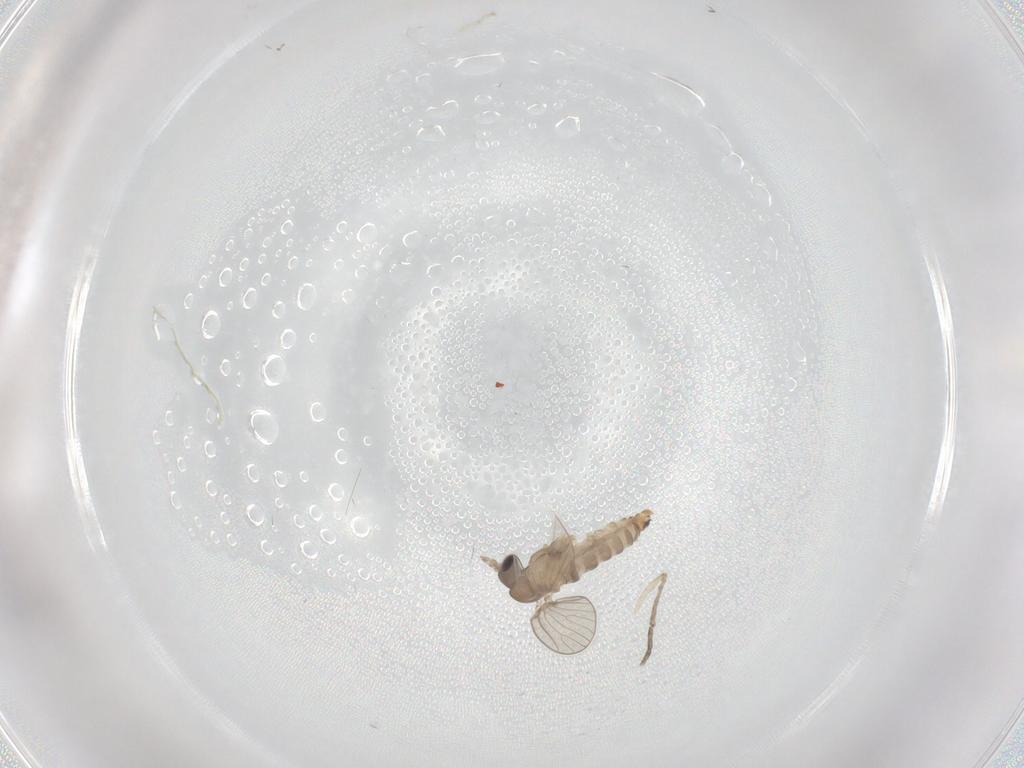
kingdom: Animalia
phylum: Arthropoda
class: Insecta
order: Diptera
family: Psychodidae
